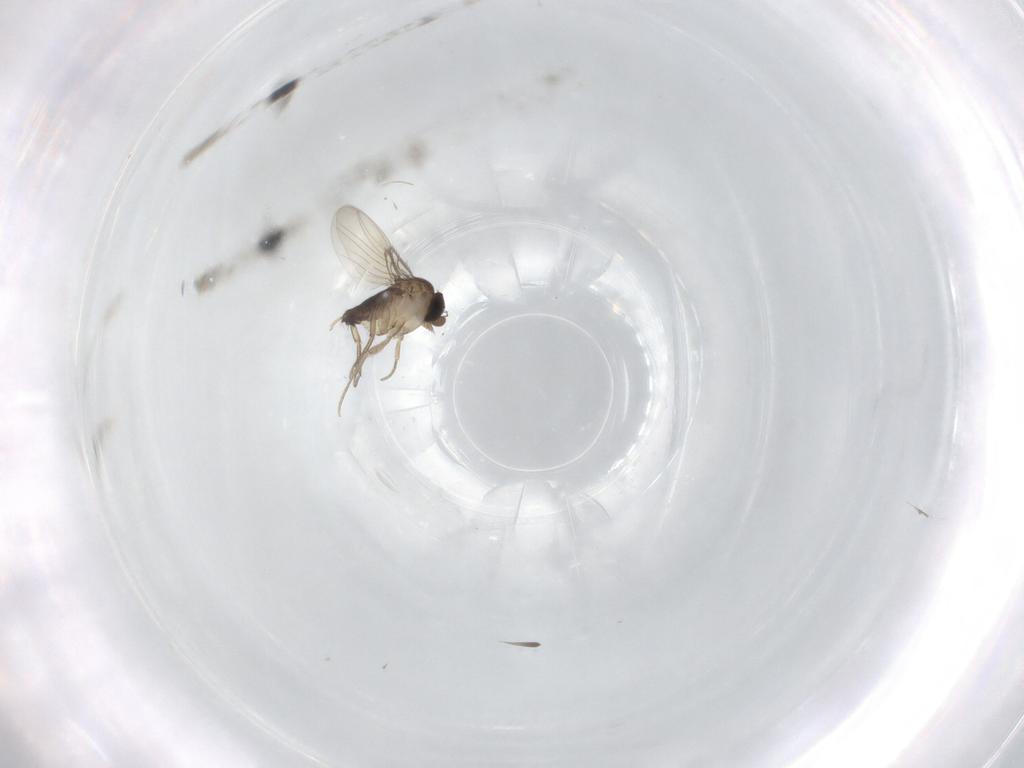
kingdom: Animalia
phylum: Arthropoda
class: Insecta
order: Diptera
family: Phoridae
